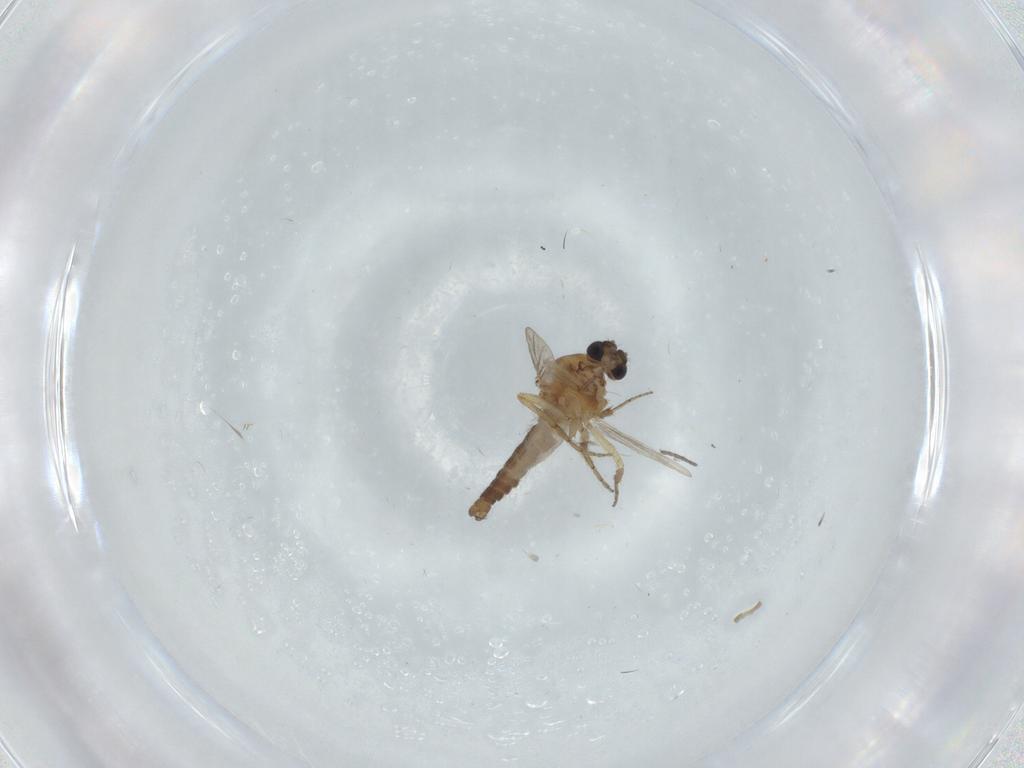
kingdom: Animalia
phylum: Arthropoda
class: Insecta
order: Diptera
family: Ceratopogonidae
